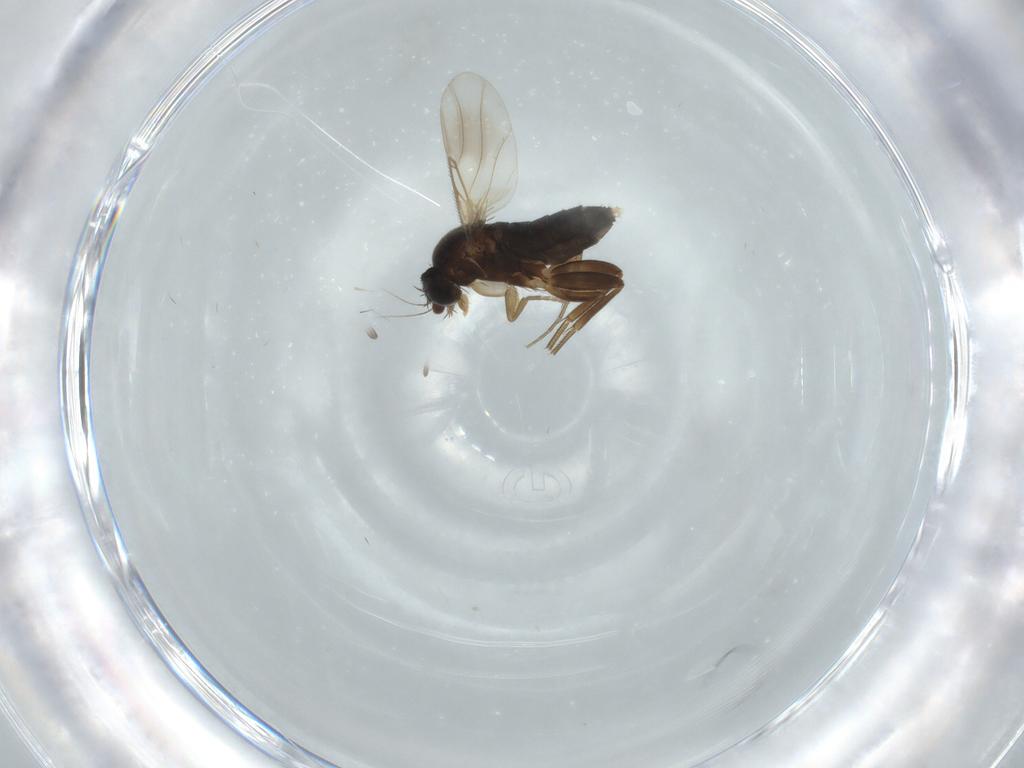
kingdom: Animalia
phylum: Arthropoda
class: Insecta
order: Diptera
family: Phoridae
